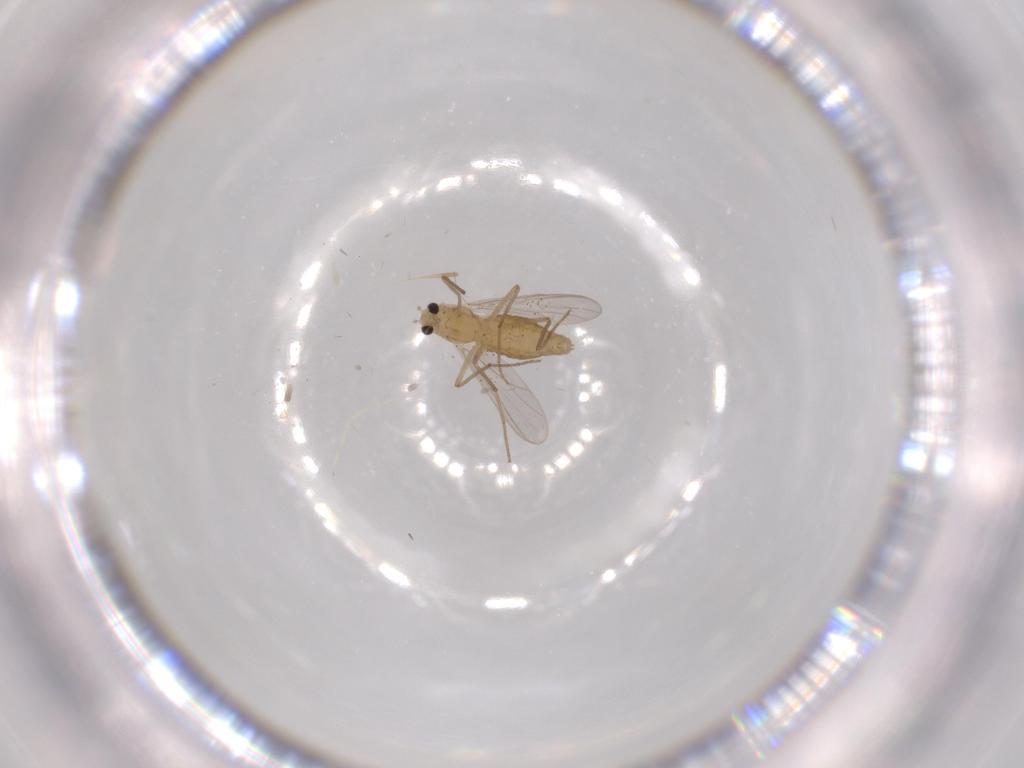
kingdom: Animalia
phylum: Arthropoda
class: Insecta
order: Diptera
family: Chironomidae
